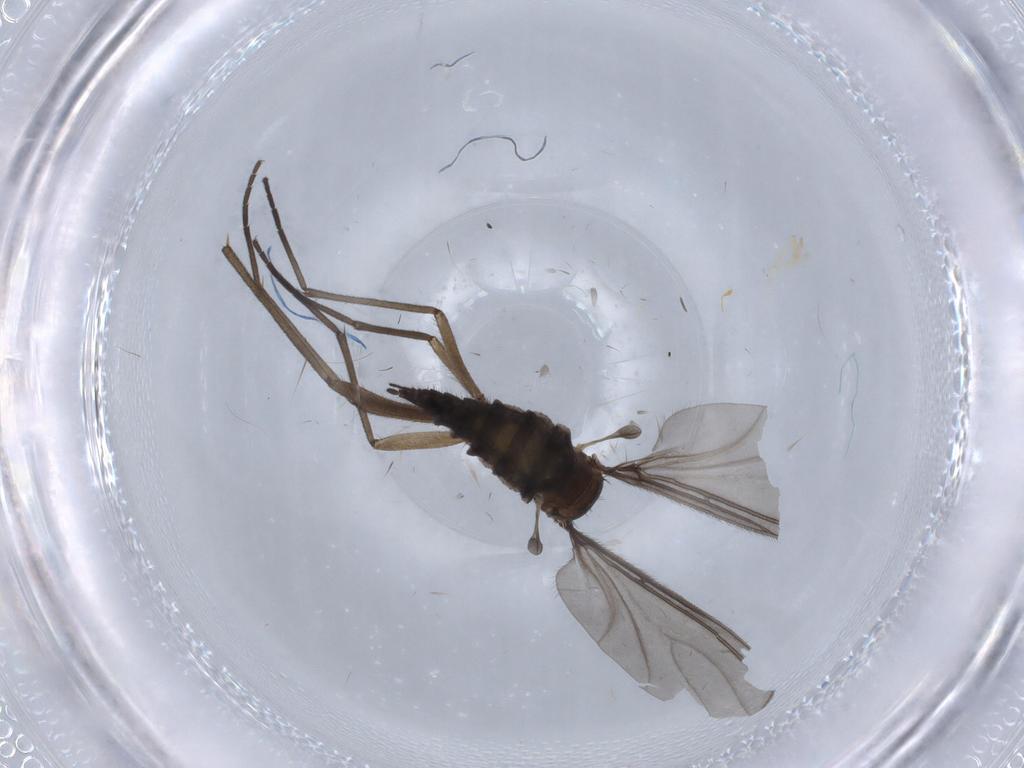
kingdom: Animalia
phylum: Arthropoda
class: Insecta
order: Diptera
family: Sciaridae
